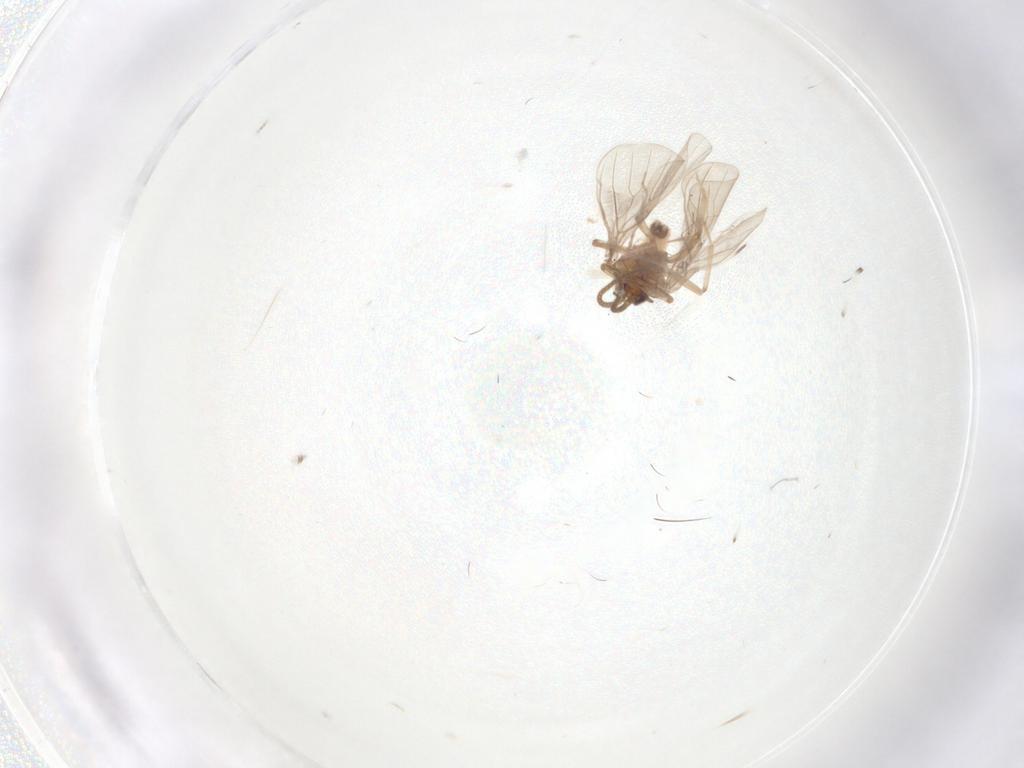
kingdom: Animalia
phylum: Arthropoda
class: Insecta
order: Neuroptera
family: Coniopterygidae
